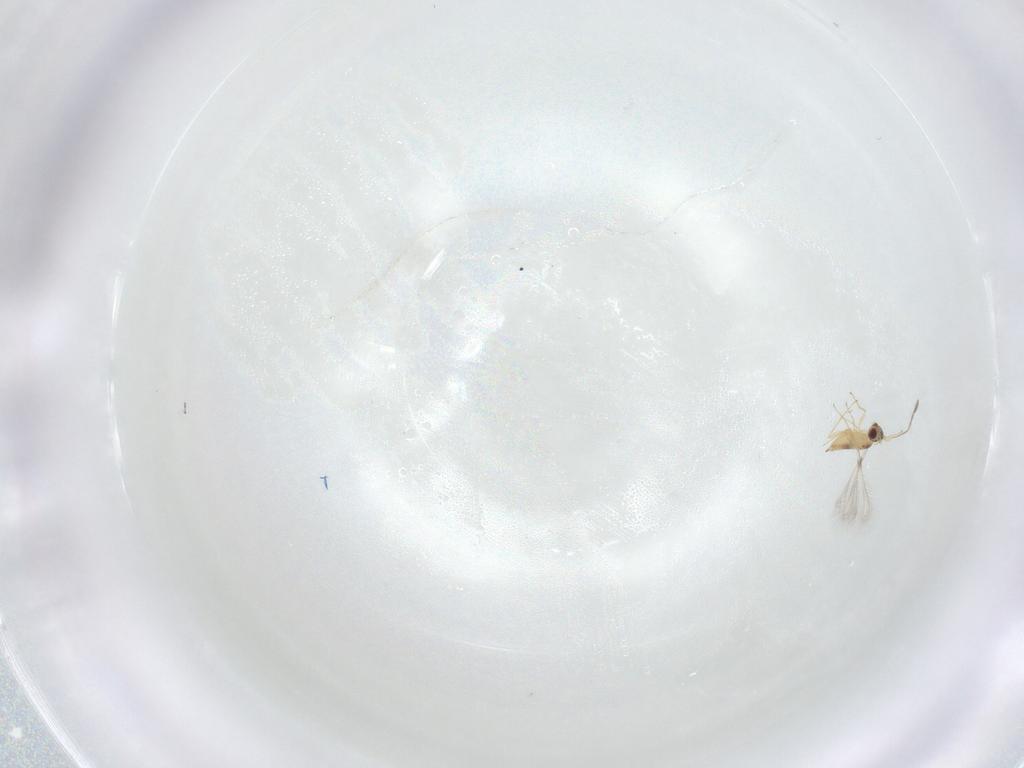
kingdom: Animalia
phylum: Arthropoda
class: Insecta
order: Hymenoptera
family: Mymaridae
